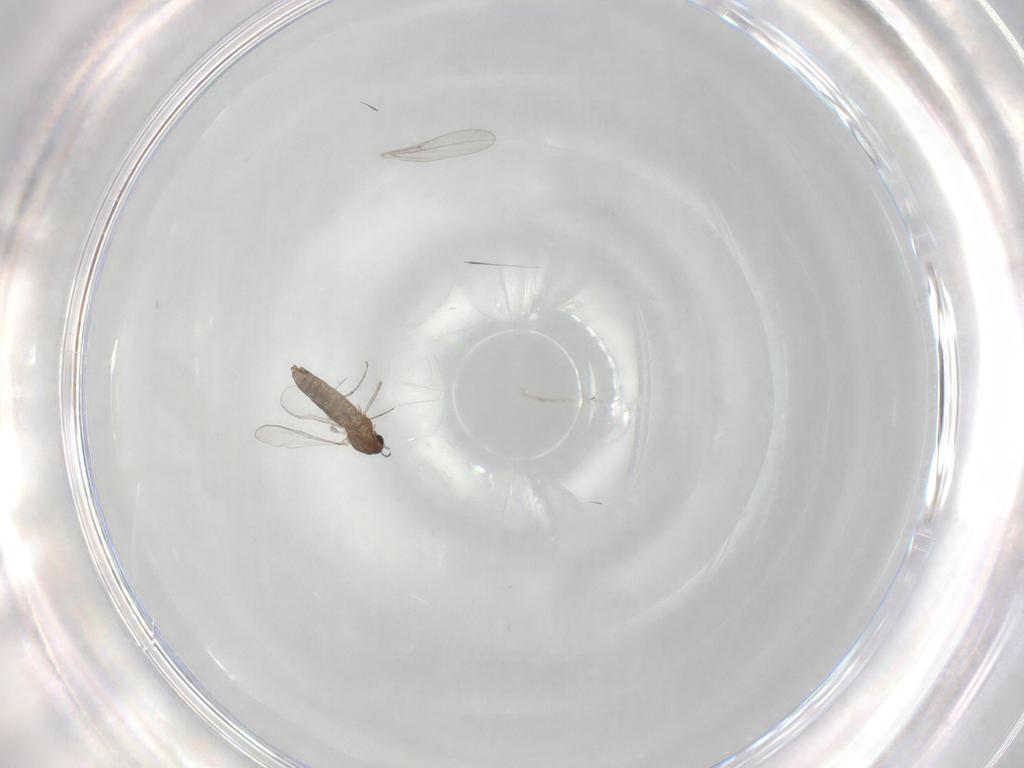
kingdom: Animalia
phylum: Arthropoda
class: Insecta
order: Diptera
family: Chironomidae
